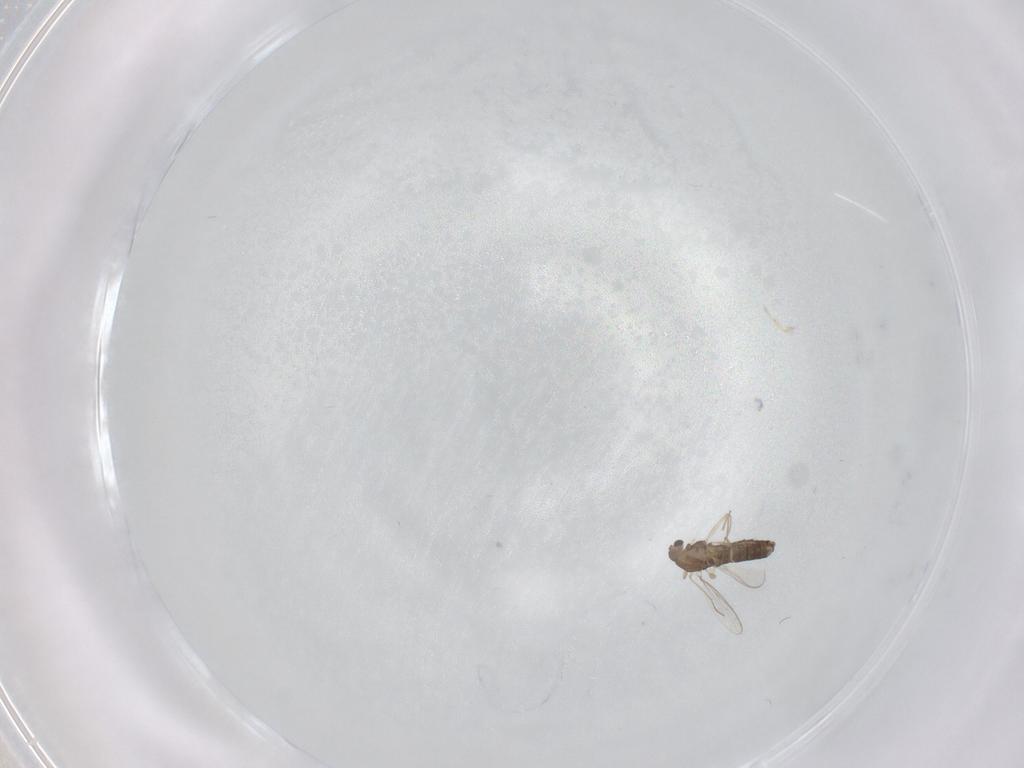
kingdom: Animalia
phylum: Arthropoda
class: Insecta
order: Diptera
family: Chironomidae
